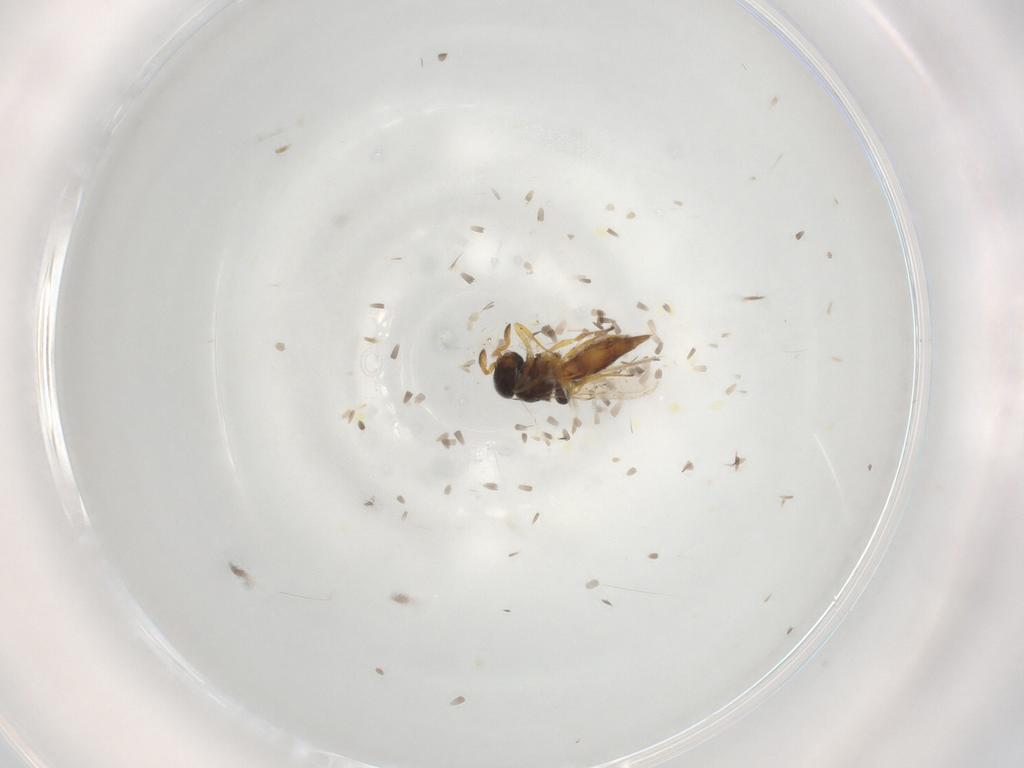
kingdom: Animalia
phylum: Arthropoda
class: Insecta
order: Hymenoptera
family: Scelionidae
